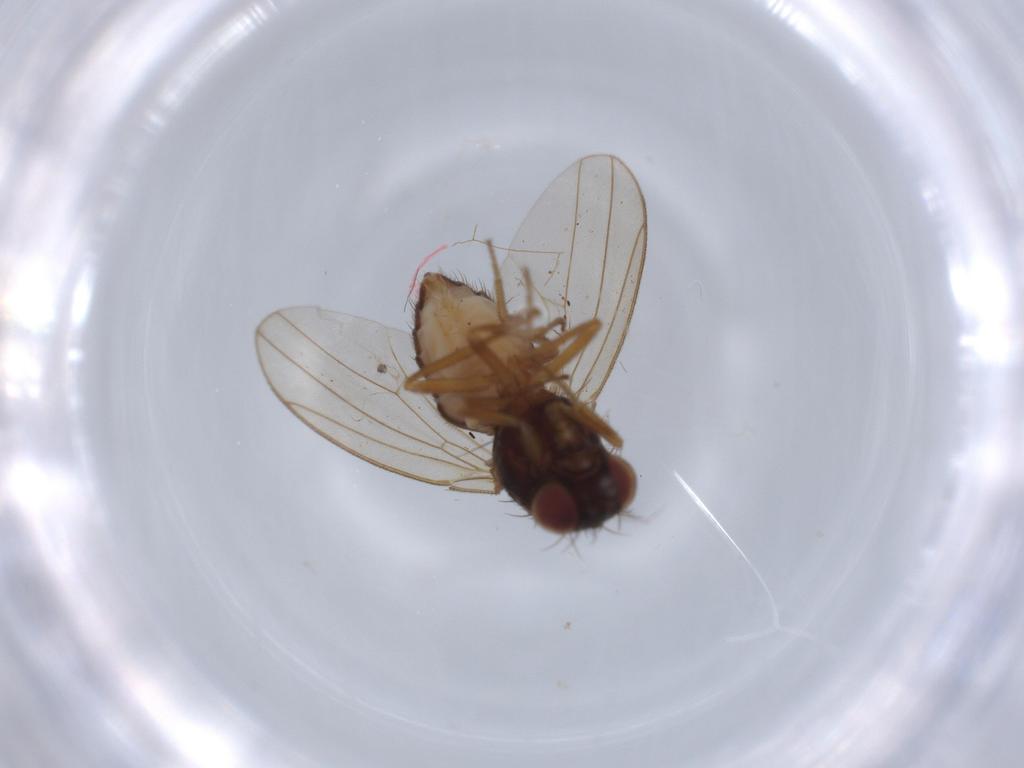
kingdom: Animalia
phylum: Arthropoda
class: Insecta
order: Diptera
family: Drosophilidae
